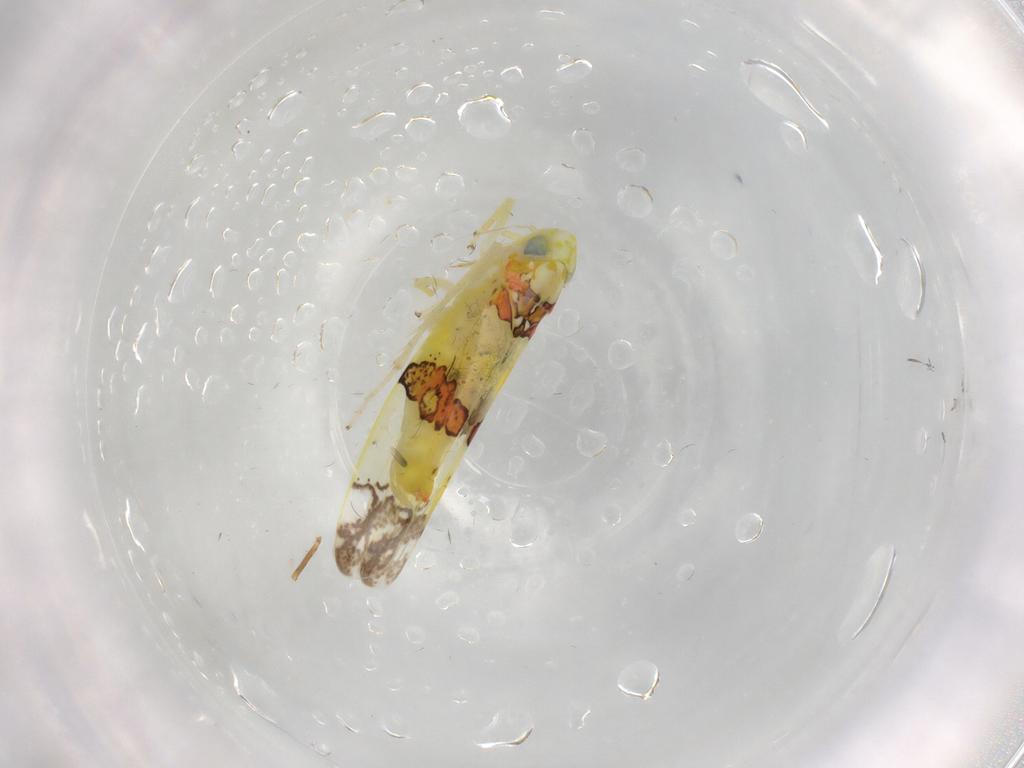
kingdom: Animalia
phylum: Arthropoda
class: Insecta
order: Hemiptera
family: Cicadellidae
